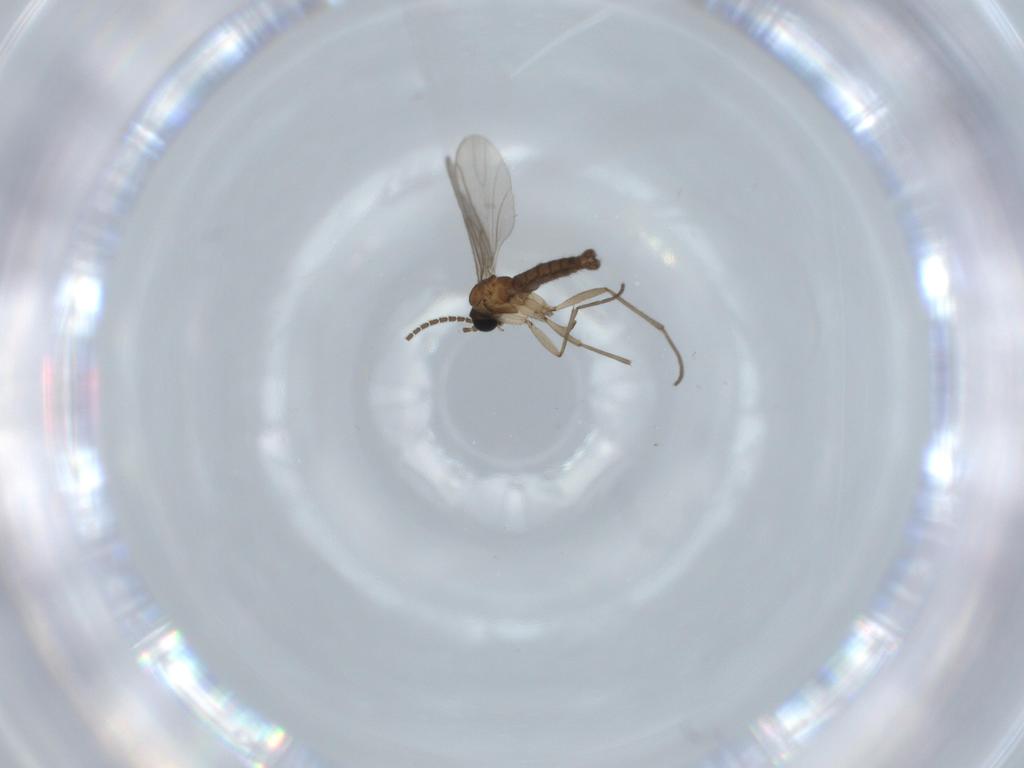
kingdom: Animalia
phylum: Arthropoda
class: Insecta
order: Diptera
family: Sciaridae
